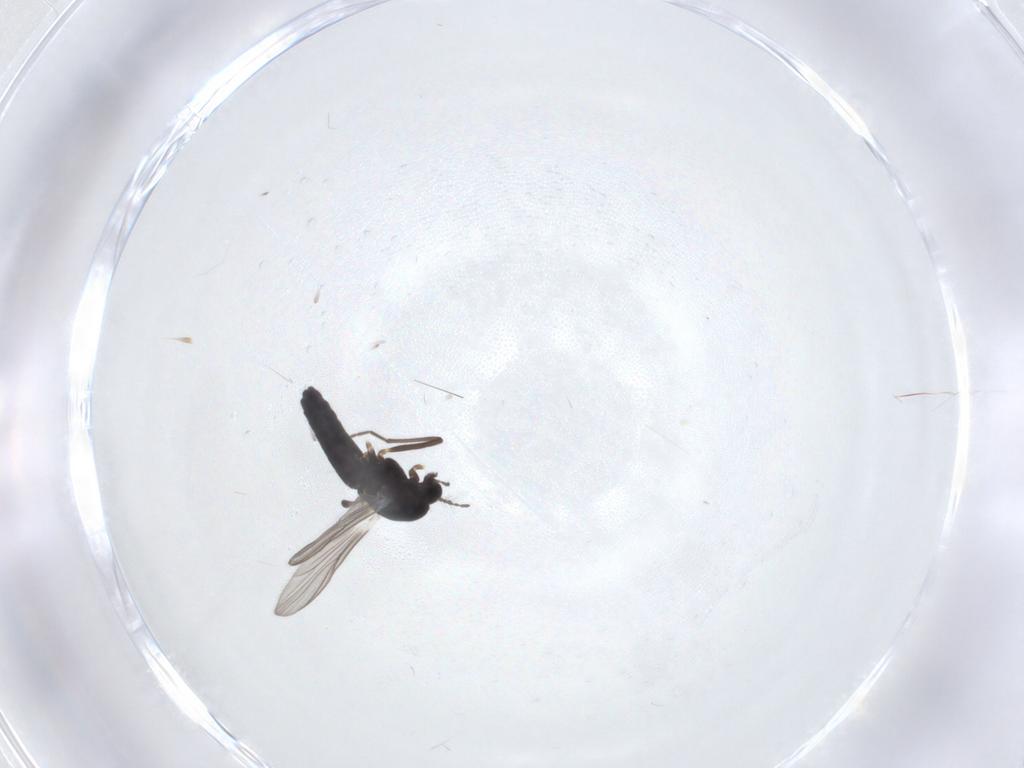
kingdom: Animalia
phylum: Arthropoda
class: Insecta
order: Diptera
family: Chironomidae
